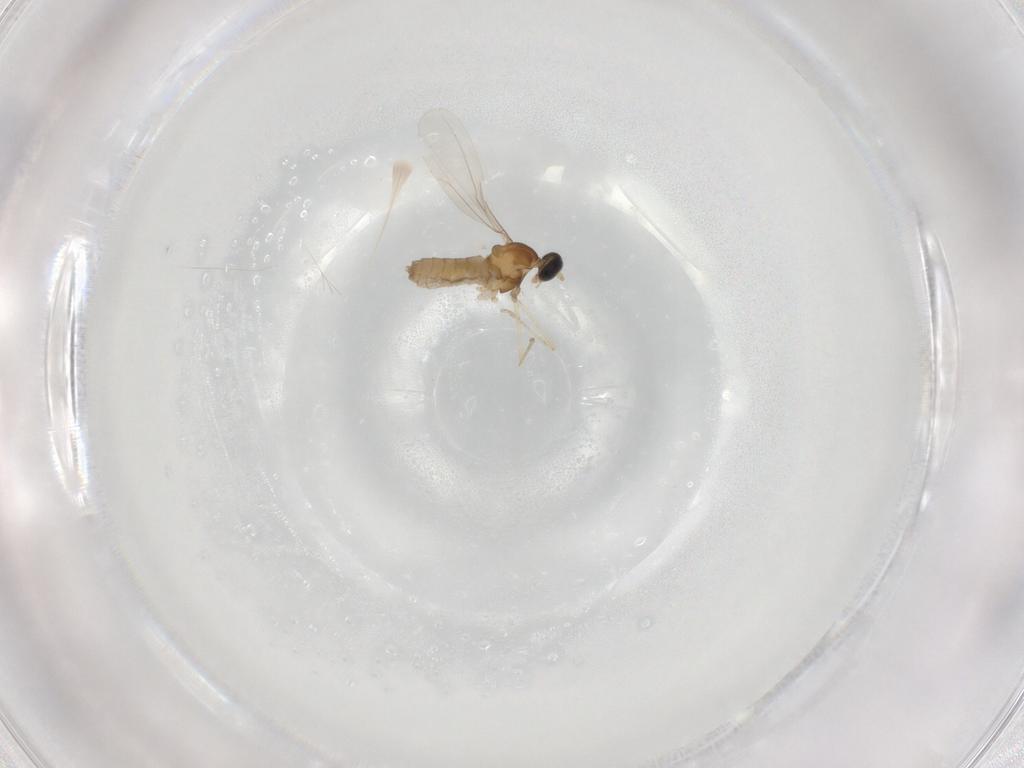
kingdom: Animalia
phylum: Arthropoda
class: Insecta
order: Diptera
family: Cecidomyiidae
